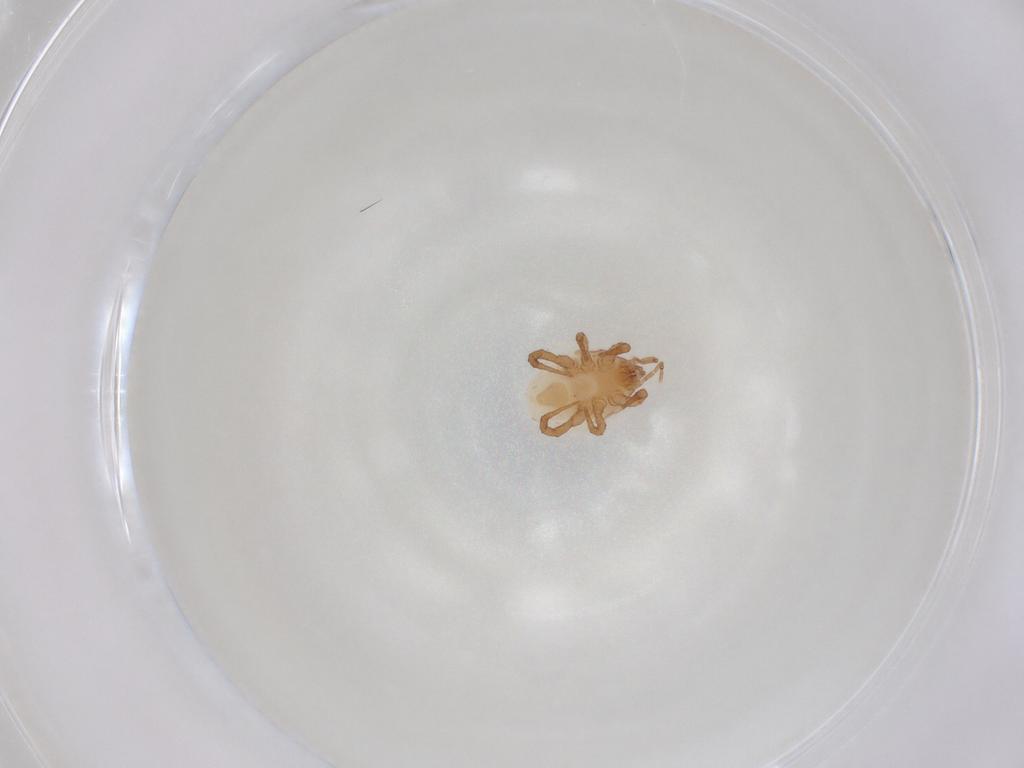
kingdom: Animalia
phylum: Arthropoda
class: Arachnida
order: Mesostigmata
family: Macrochelidae
